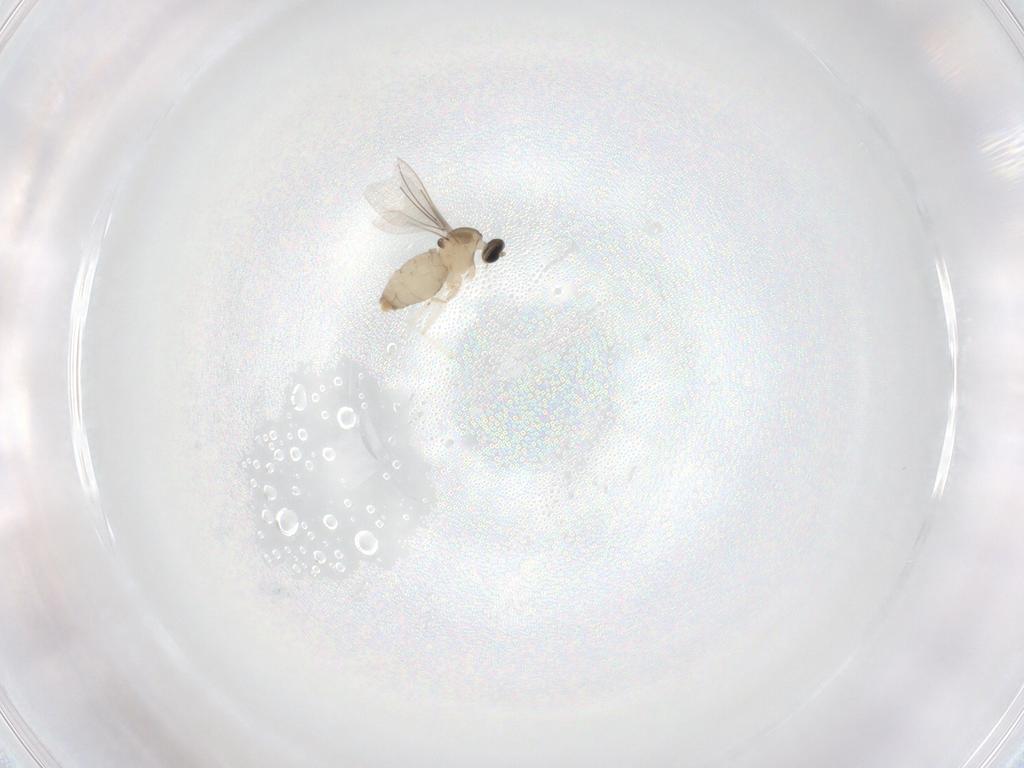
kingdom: Animalia
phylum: Arthropoda
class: Insecta
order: Diptera
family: Cecidomyiidae
